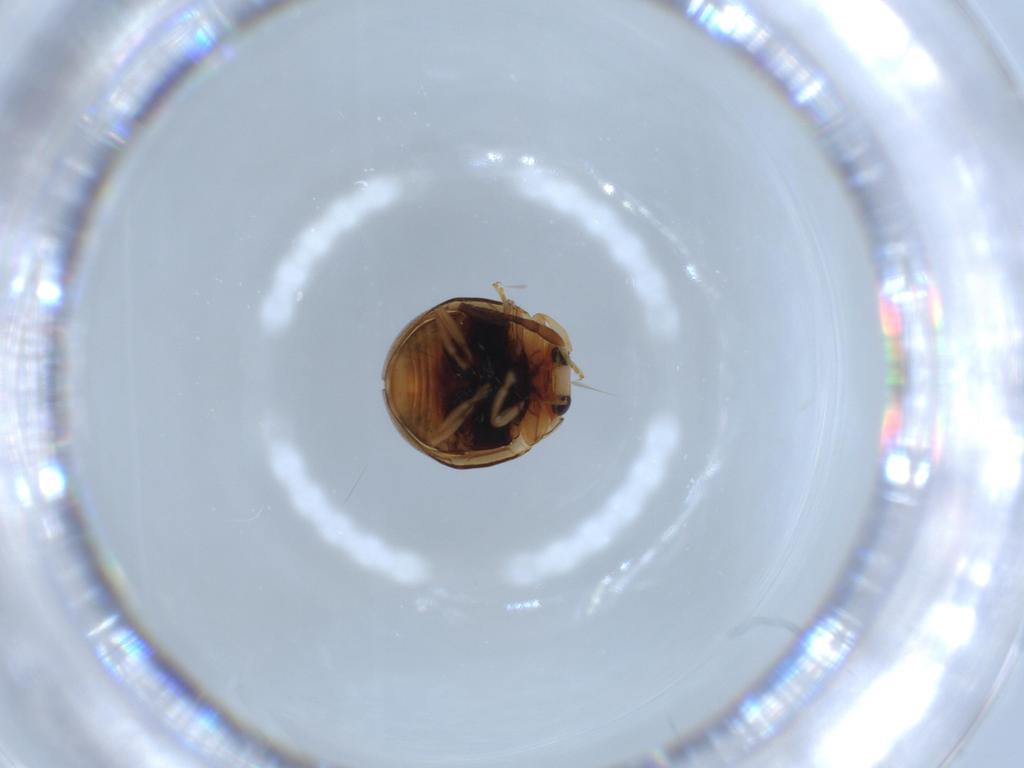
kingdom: Animalia
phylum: Arthropoda
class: Insecta
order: Coleoptera
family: Coccinellidae
